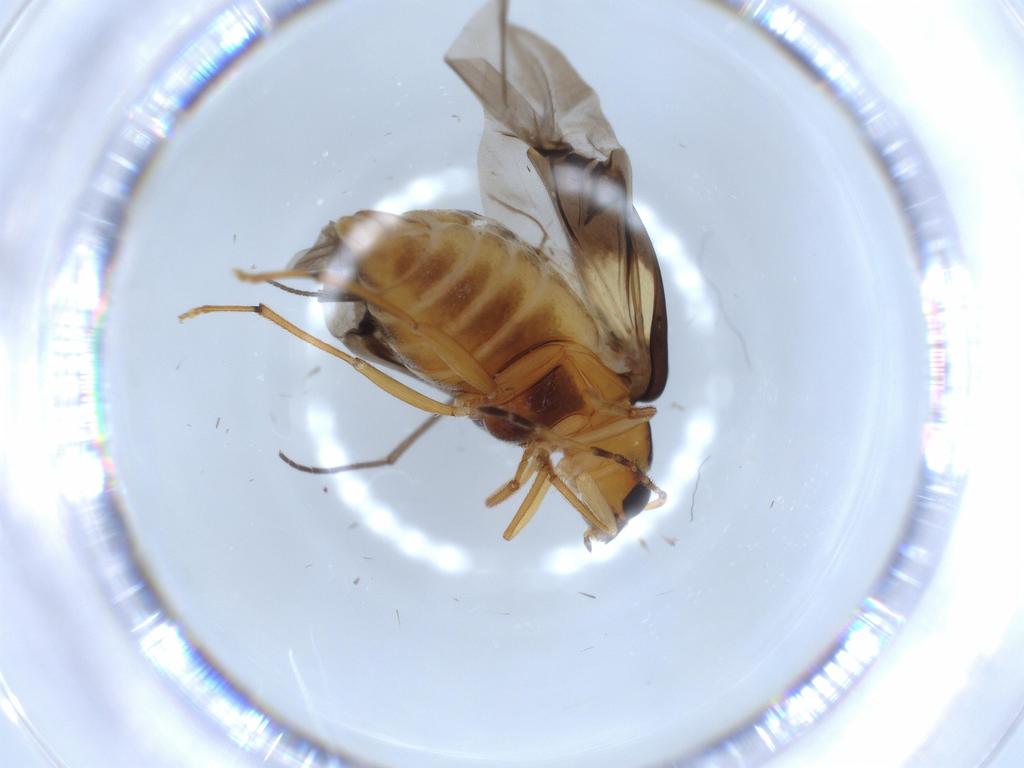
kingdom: Animalia
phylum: Arthropoda
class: Insecta
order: Coleoptera
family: Chrysomelidae
